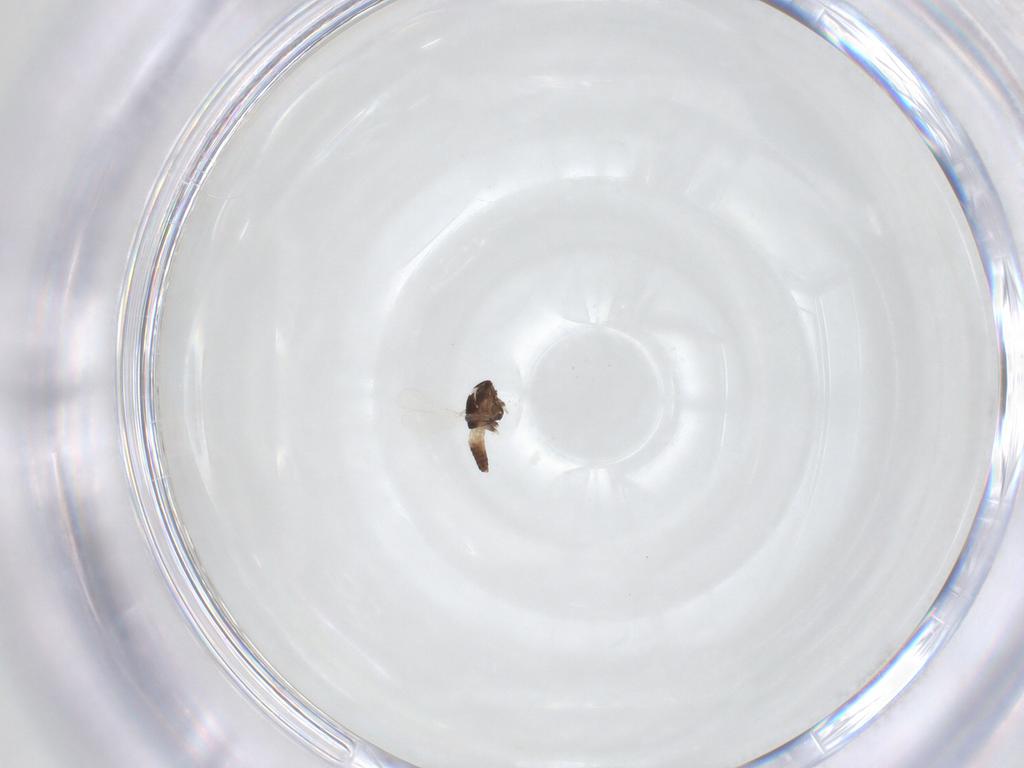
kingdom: Animalia
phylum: Arthropoda
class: Insecta
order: Diptera
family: Chironomidae
